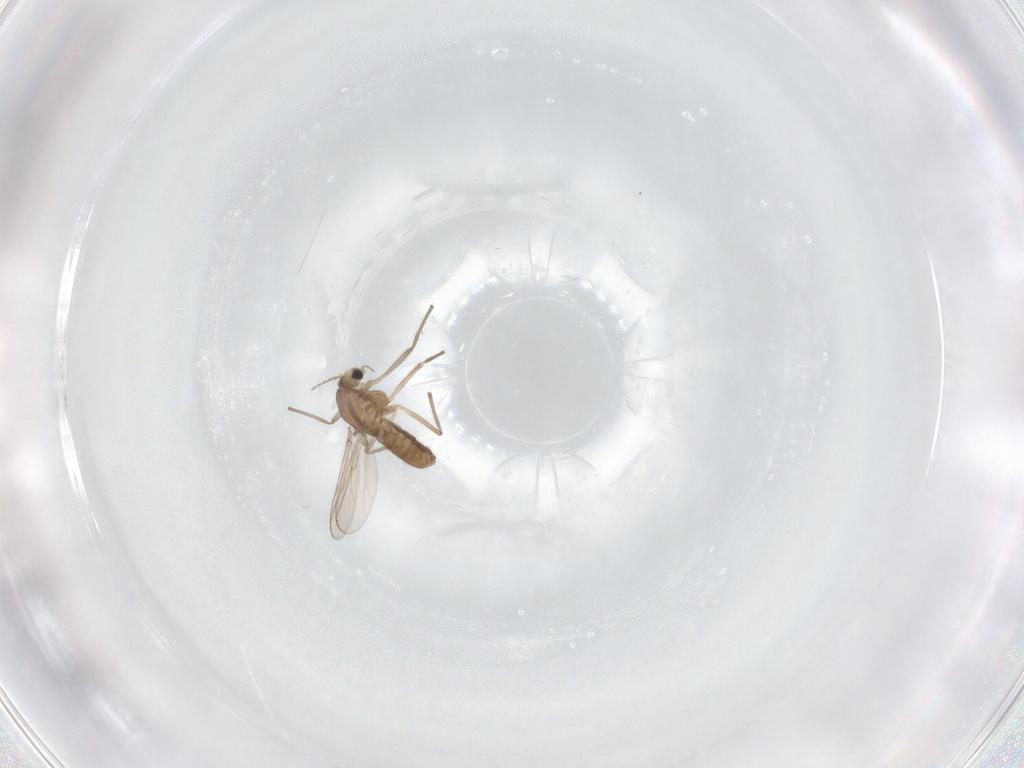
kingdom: Animalia
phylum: Arthropoda
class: Insecta
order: Diptera
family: Chironomidae
